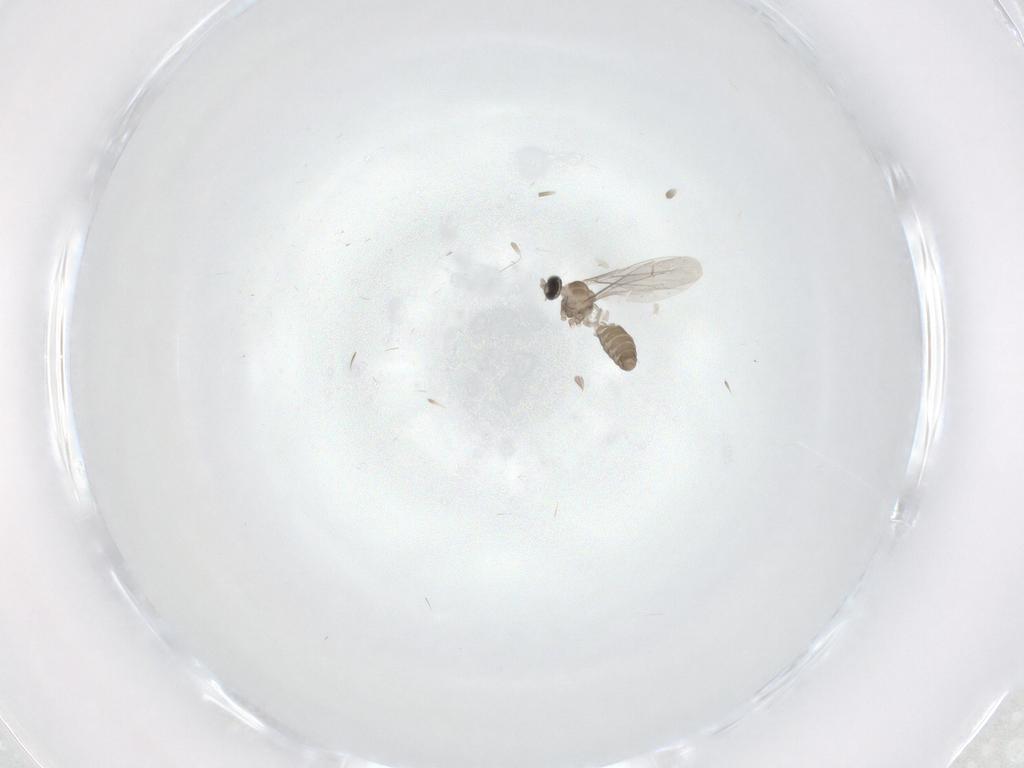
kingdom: Animalia
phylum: Arthropoda
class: Insecta
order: Diptera
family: Cecidomyiidae
